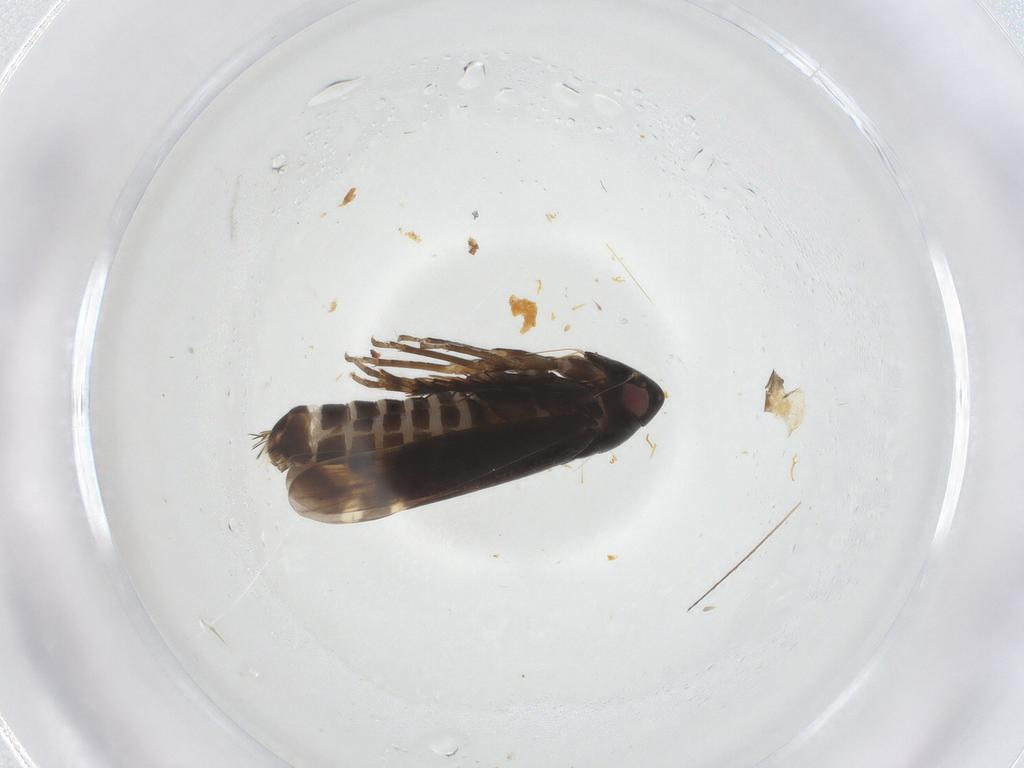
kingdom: Animalia
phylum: Arthropoda
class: Insecta
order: Hemiptera
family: Cicadellidae
